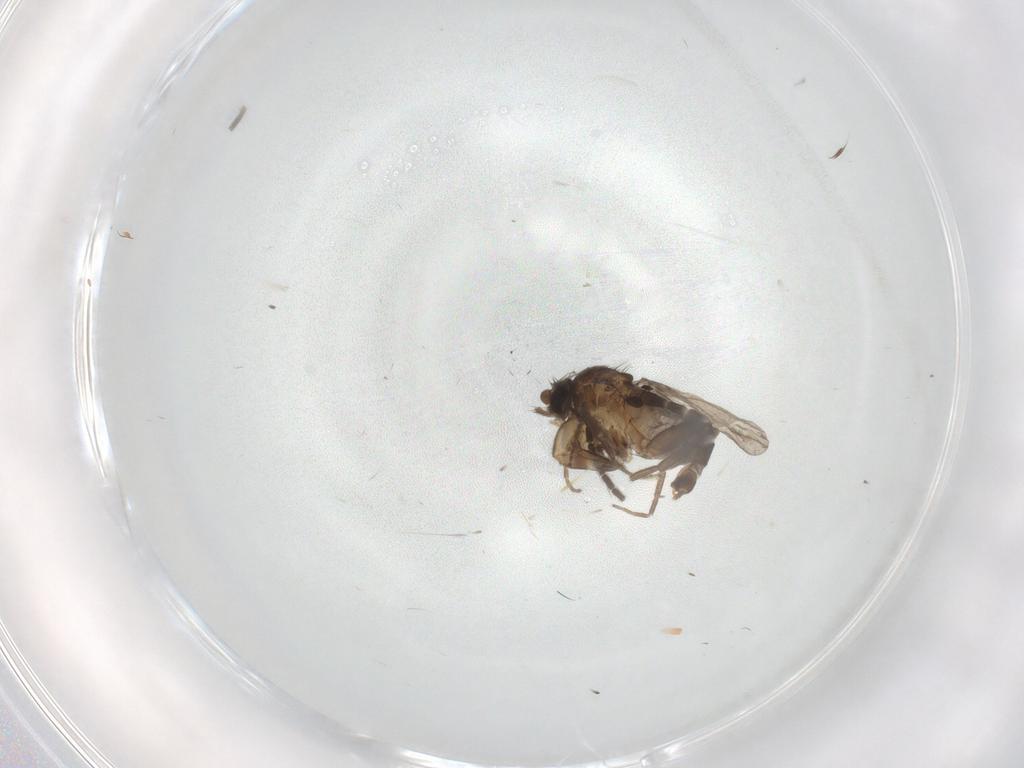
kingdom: Animalia
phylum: Arthropoda
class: Insecta
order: Diptera
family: Sciaridae
